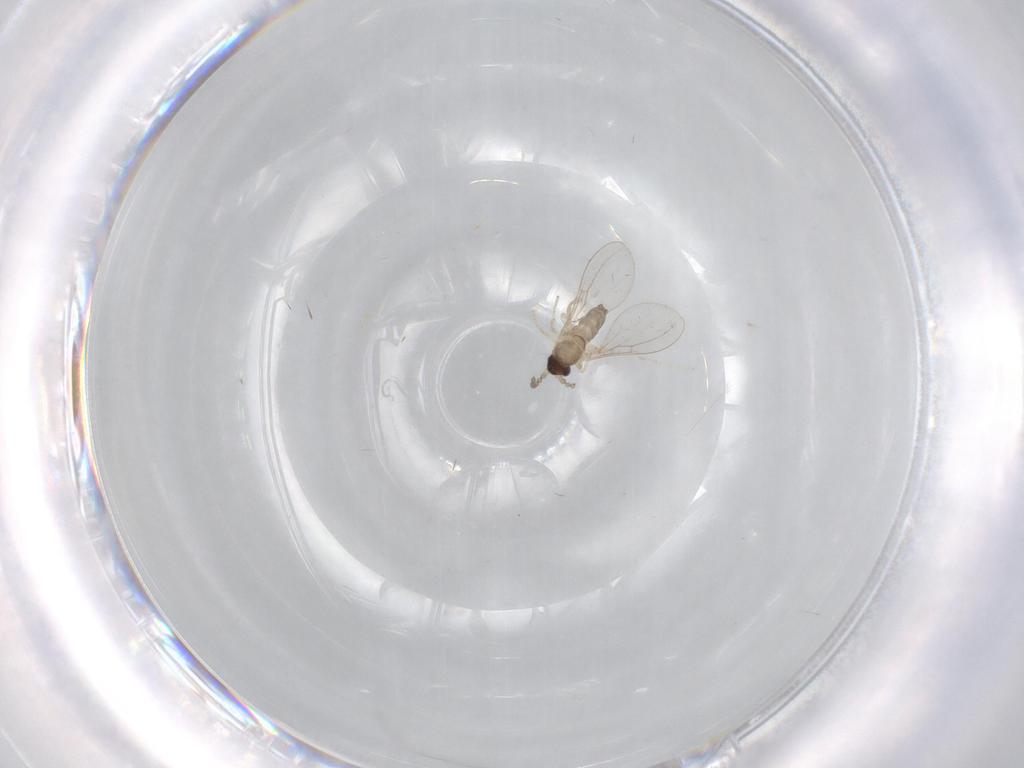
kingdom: Animalia
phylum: Arthropoda
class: Insecta
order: Diptera
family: Cecidomyiidae
